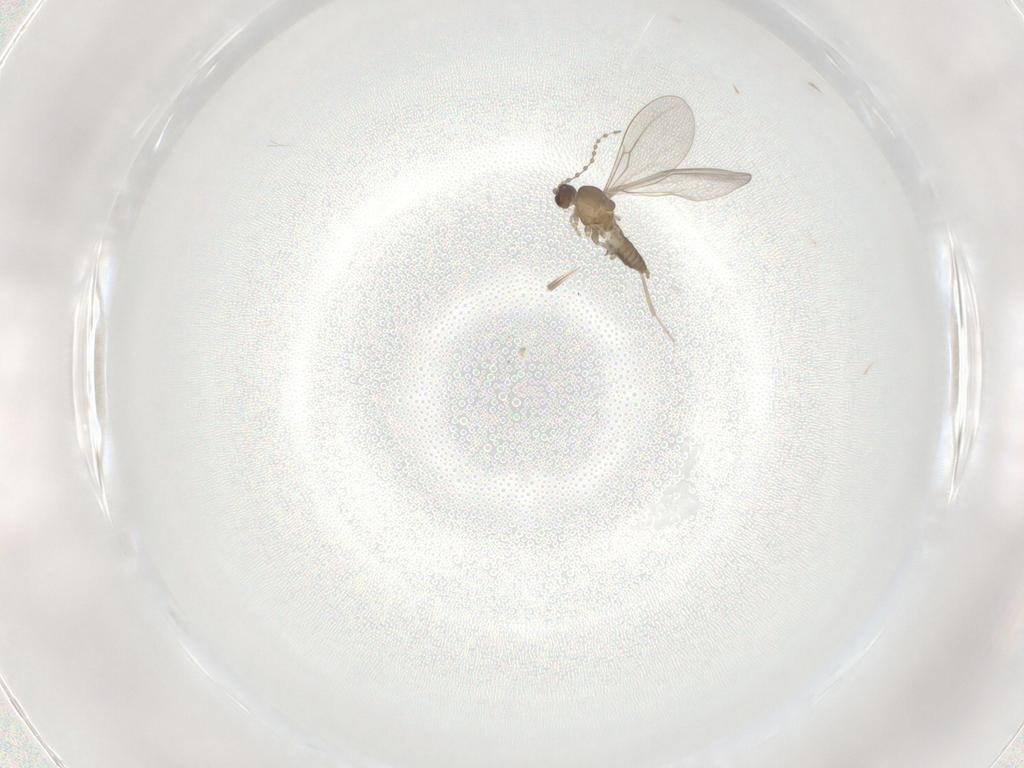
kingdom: Animalia
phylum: Arthropoda
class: Insecta
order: Diptera
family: Cecidomyiidae
